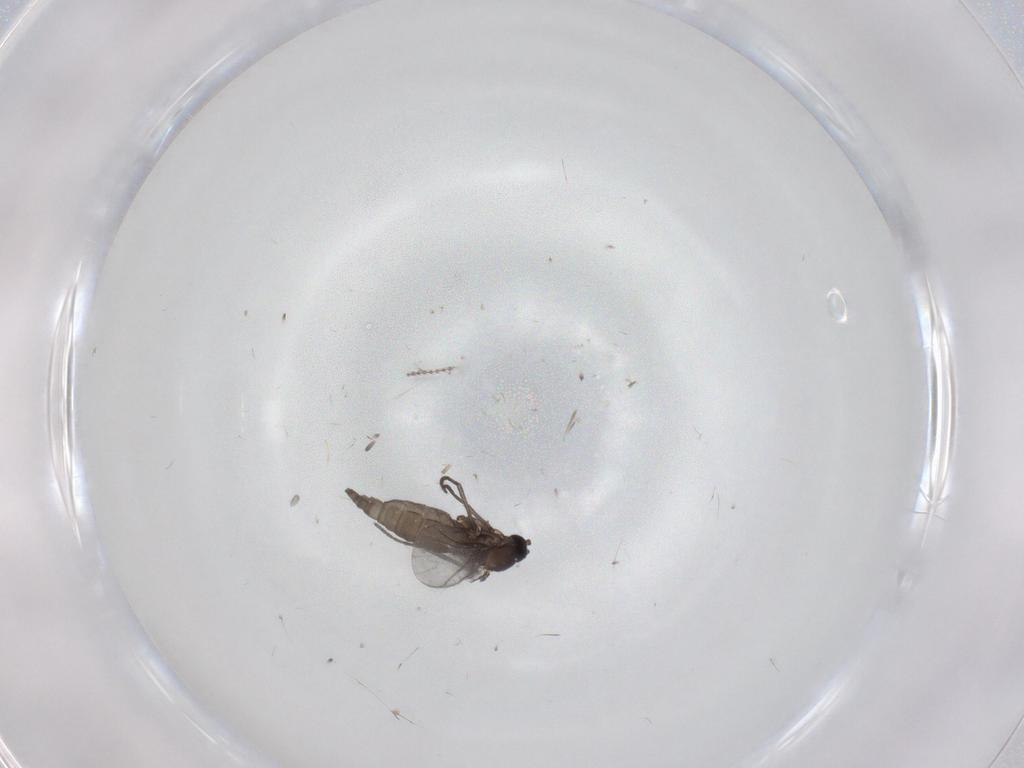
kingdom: Animalia
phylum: Arthropoda
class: Insecta
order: Diptera
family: Cecidomyiidae
